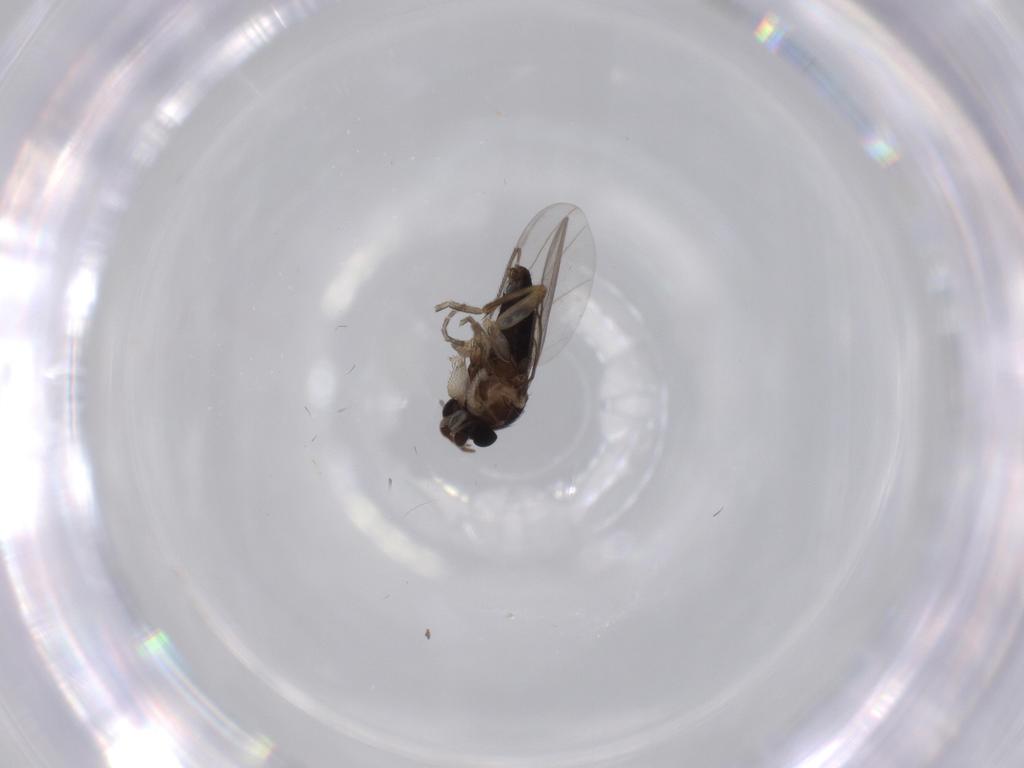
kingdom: Animalia
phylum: Arthropoda
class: Insecta
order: Diptera
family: Phoridae
